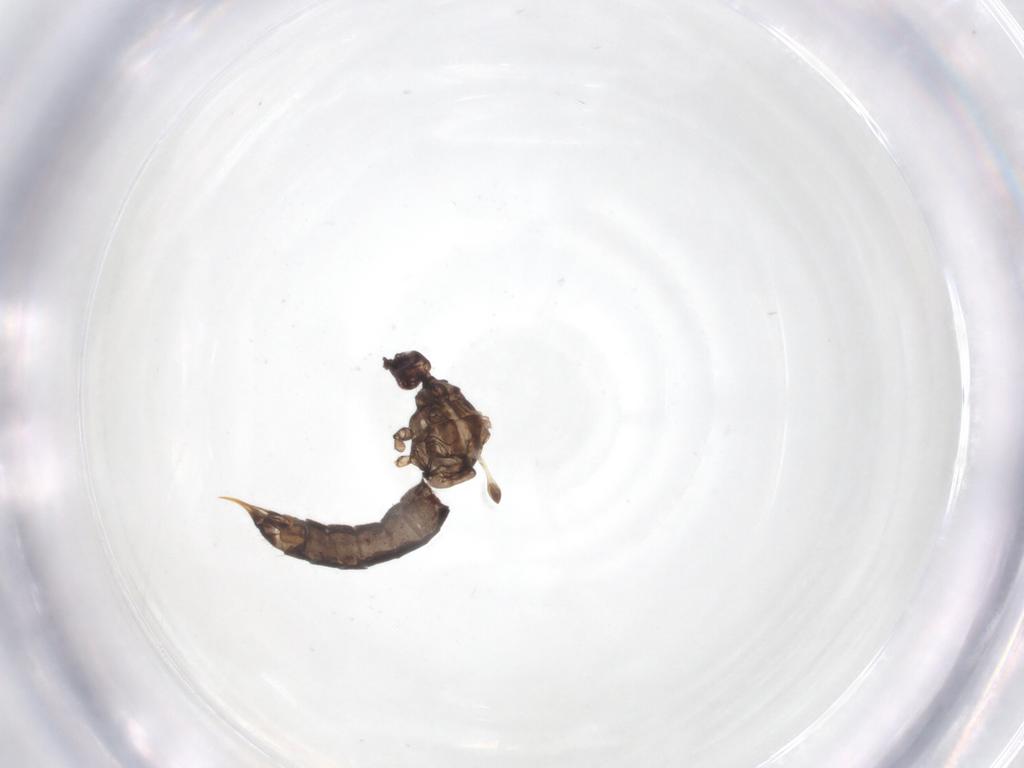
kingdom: Animalia
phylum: Arthropoda
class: Insecta
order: Diptera
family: Limoniidae
